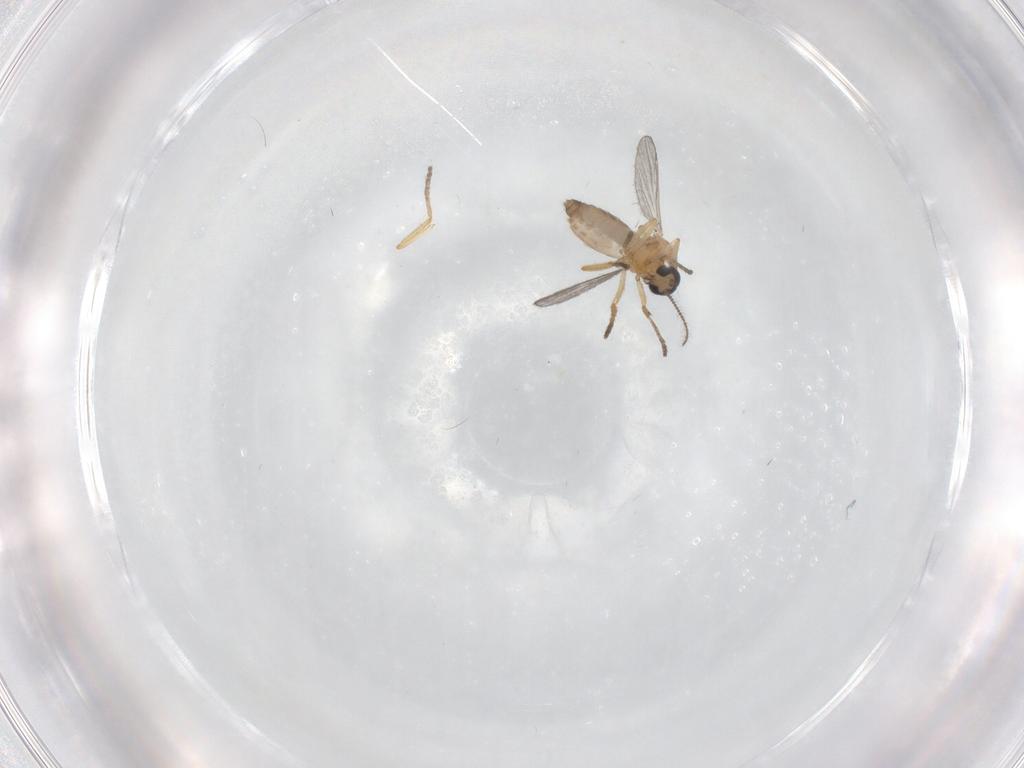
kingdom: Animalia
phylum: Arthropoda
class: Insecta
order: Diptera
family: Ceratopogonidae
